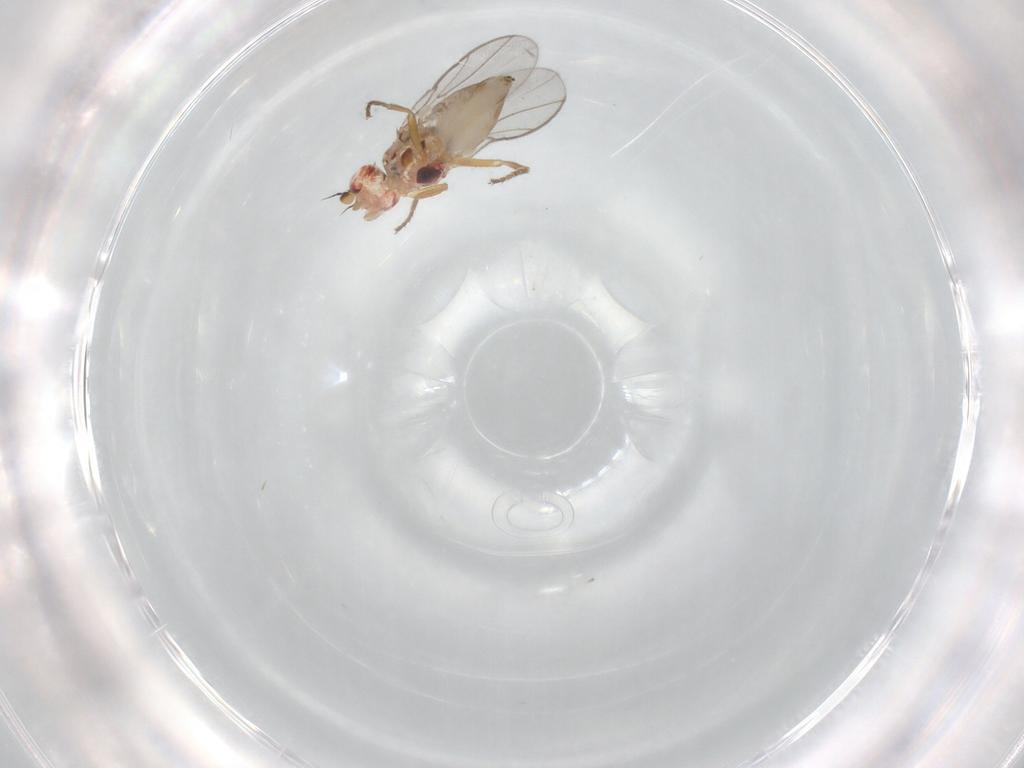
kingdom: Animalia
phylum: Arthropoda
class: Insecta
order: Diptera
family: Chloropidae
